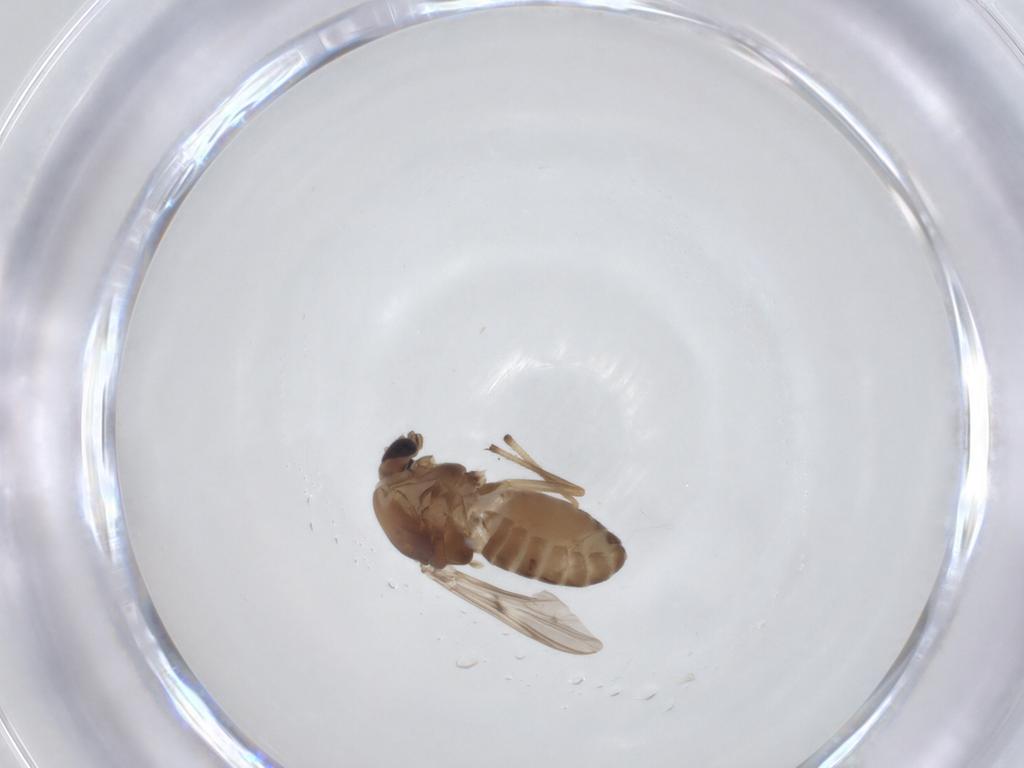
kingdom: Animalia
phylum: Arthropoda
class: Insecta
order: Diptera
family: Chironomidae
